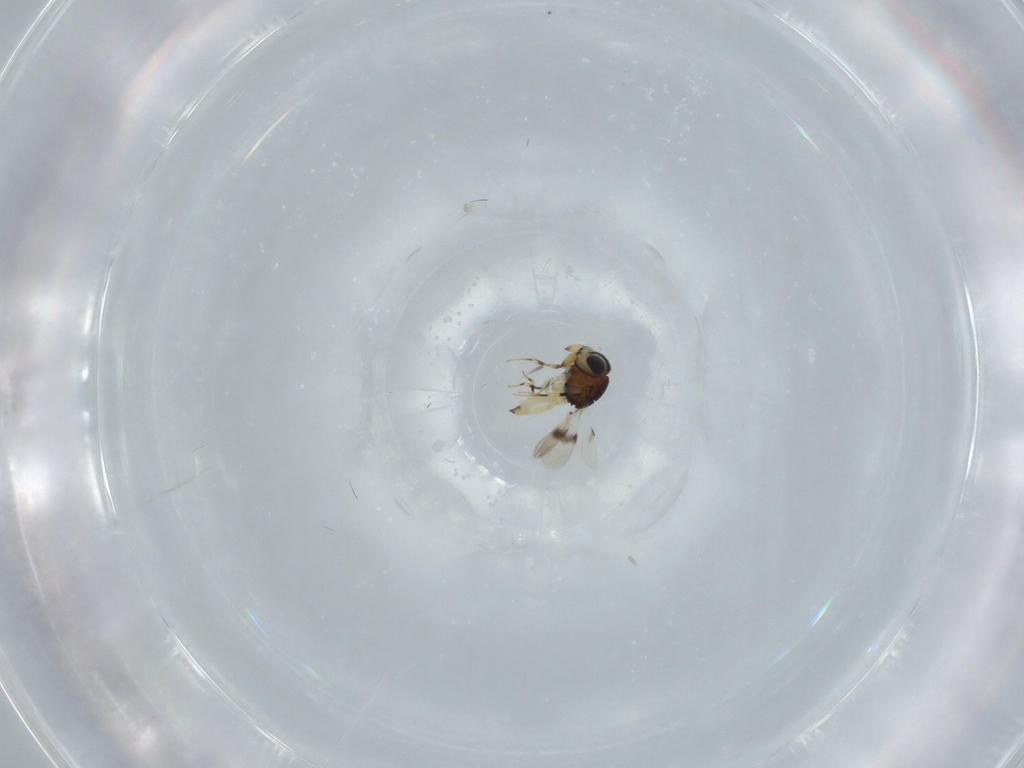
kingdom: Animalia
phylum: Arthropoda
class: Insecta
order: Hymenoptera
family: Scelionidae
